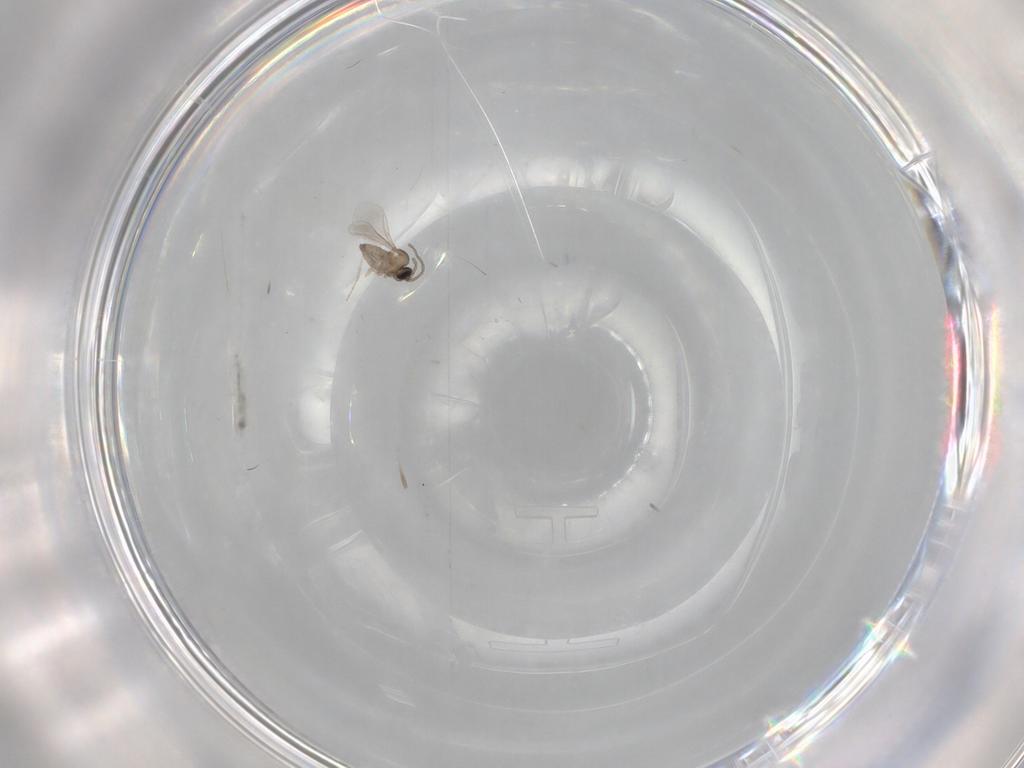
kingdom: Animalia
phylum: Arthropoda
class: Insecta
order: Diptera
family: Cecidomyiidae
